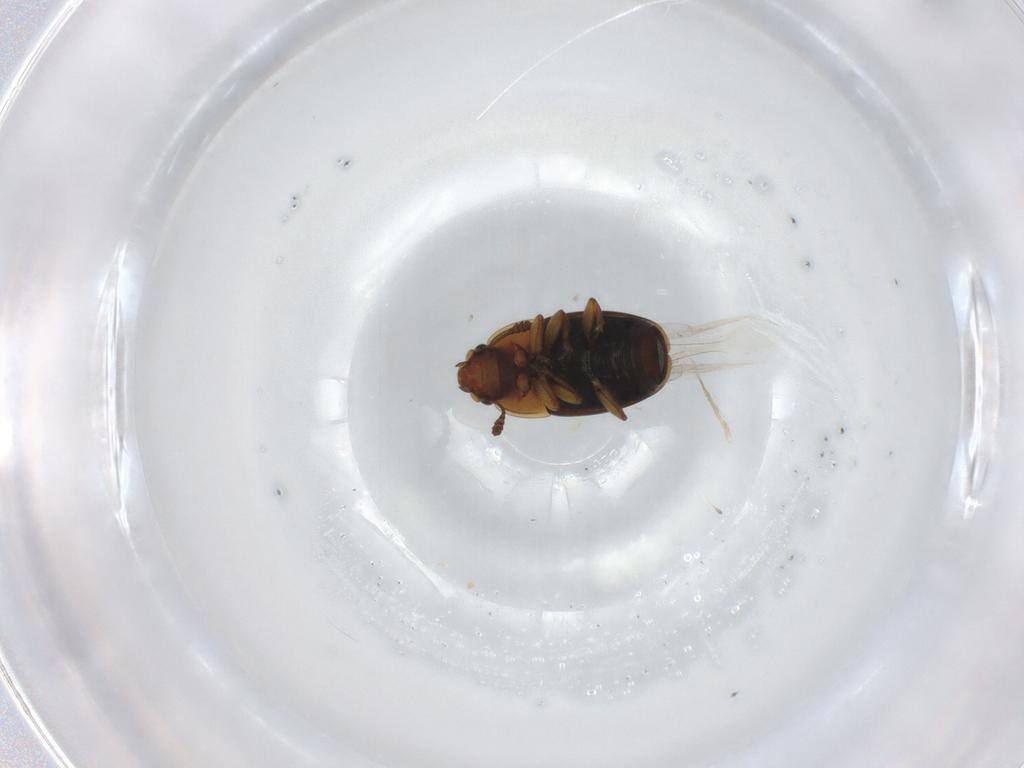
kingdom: Animalia
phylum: Arthropoda
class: Insecta
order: Coleoptera
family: Nitidulidae
